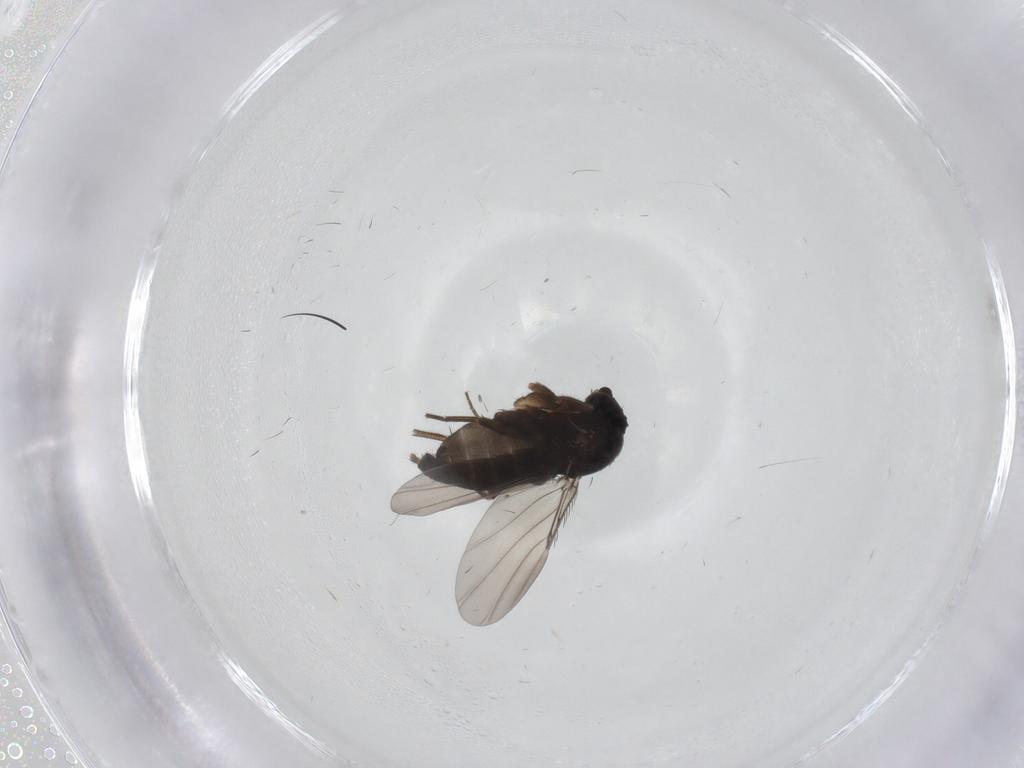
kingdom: Animalia
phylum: Arthropoda
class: Insecta
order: Diptera
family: Phoridae
